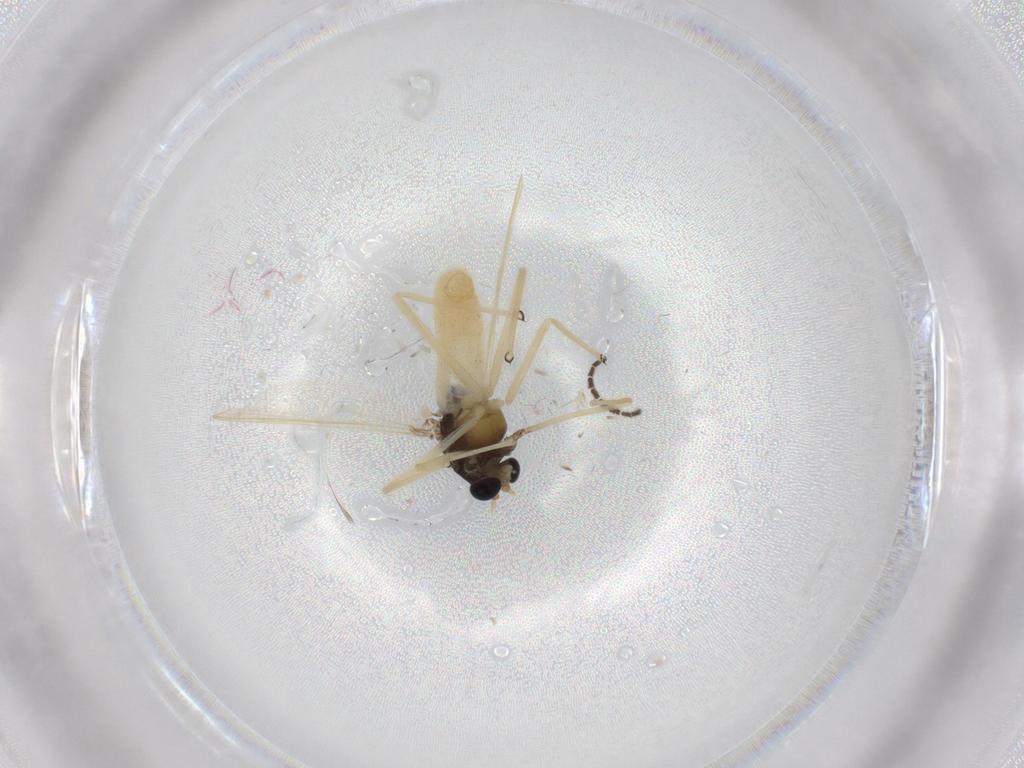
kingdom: Animalia
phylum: Arthropoda
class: Insecta
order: Diptera
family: Chironomidae
